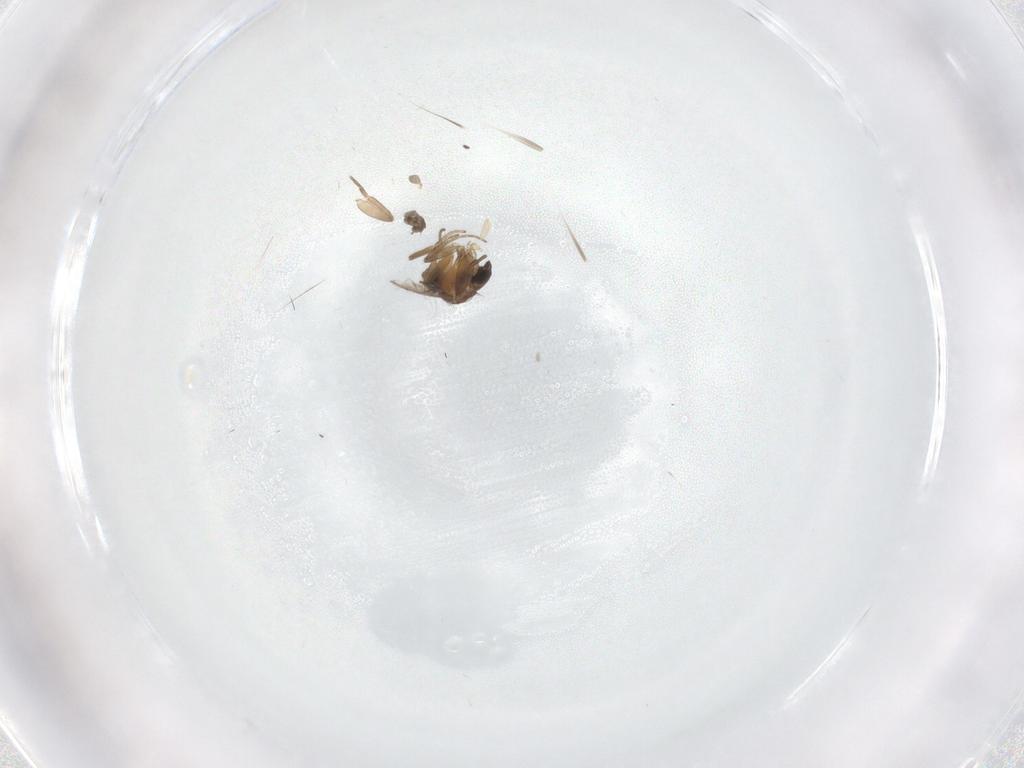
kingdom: Animalia
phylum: Arthropoda
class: Insecta
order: Diptera
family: Phoridae
